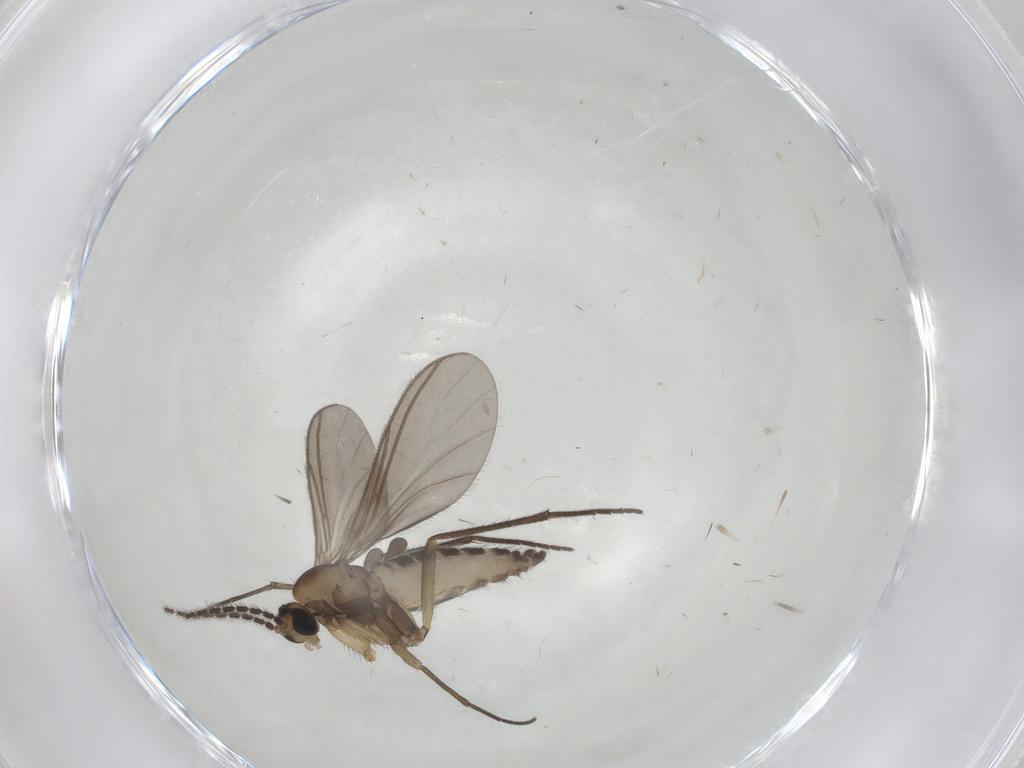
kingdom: Animalia
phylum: Arthropoda
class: Insecta
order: Diptera
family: Sciaridae
